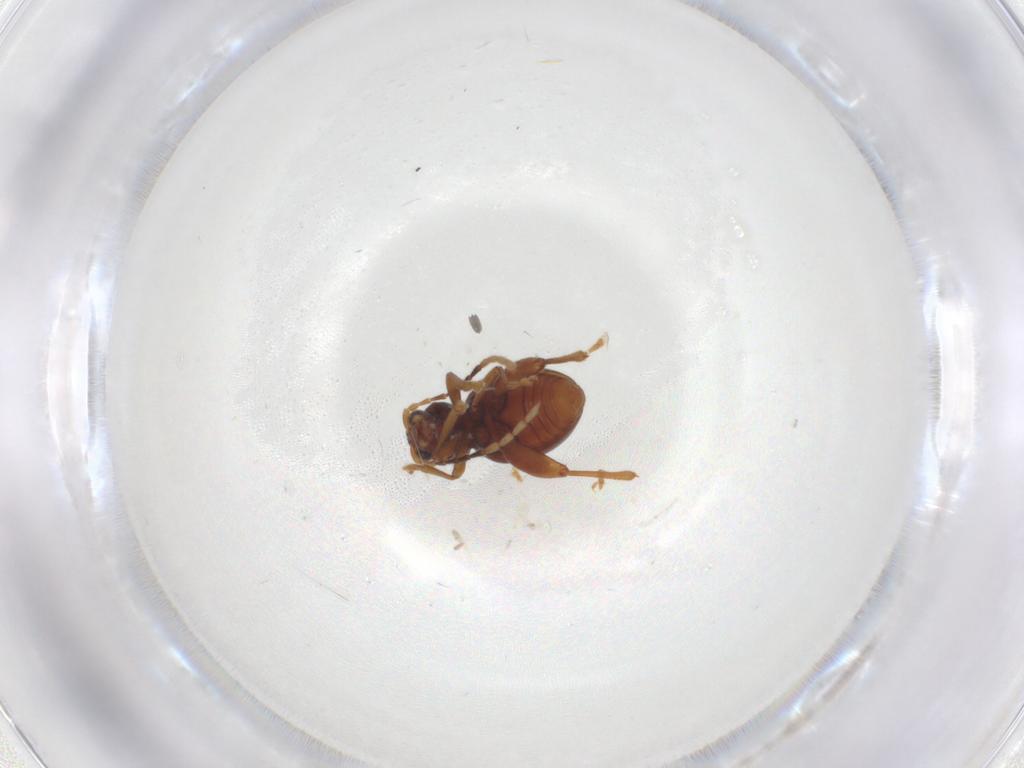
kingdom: Animalia
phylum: Arthropoda
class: Insecta
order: Coleoptera
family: Chrysomelidae
